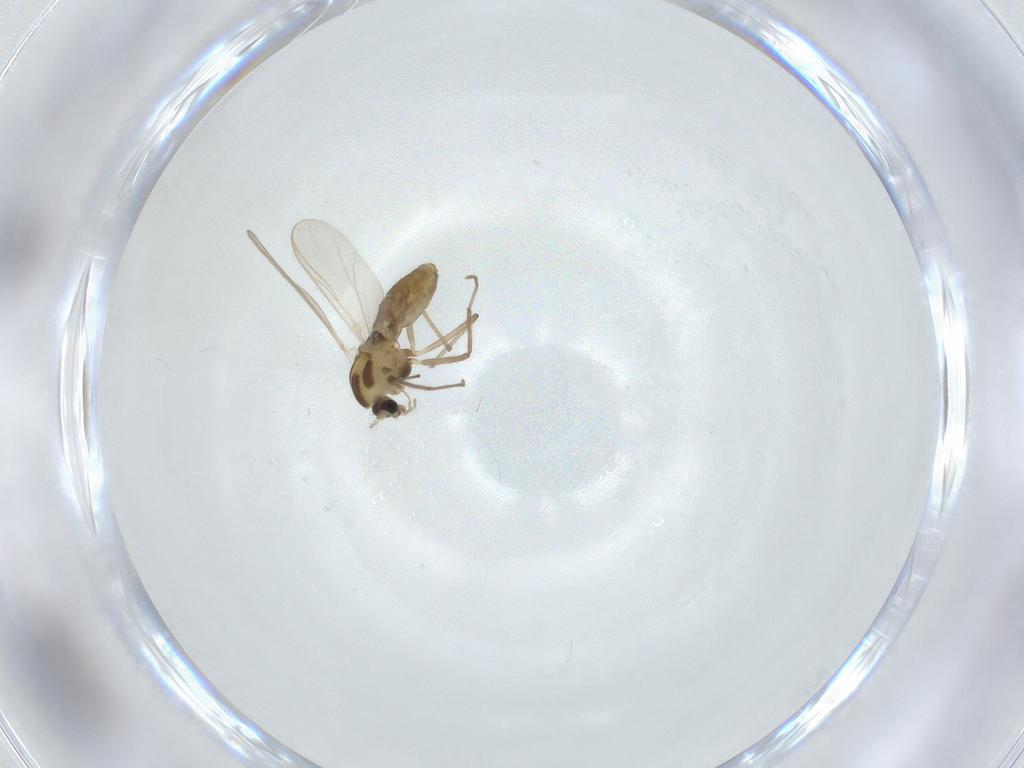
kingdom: Animalia
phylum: Arthropoda
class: Insecta
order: Diptera
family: Chironomidae
